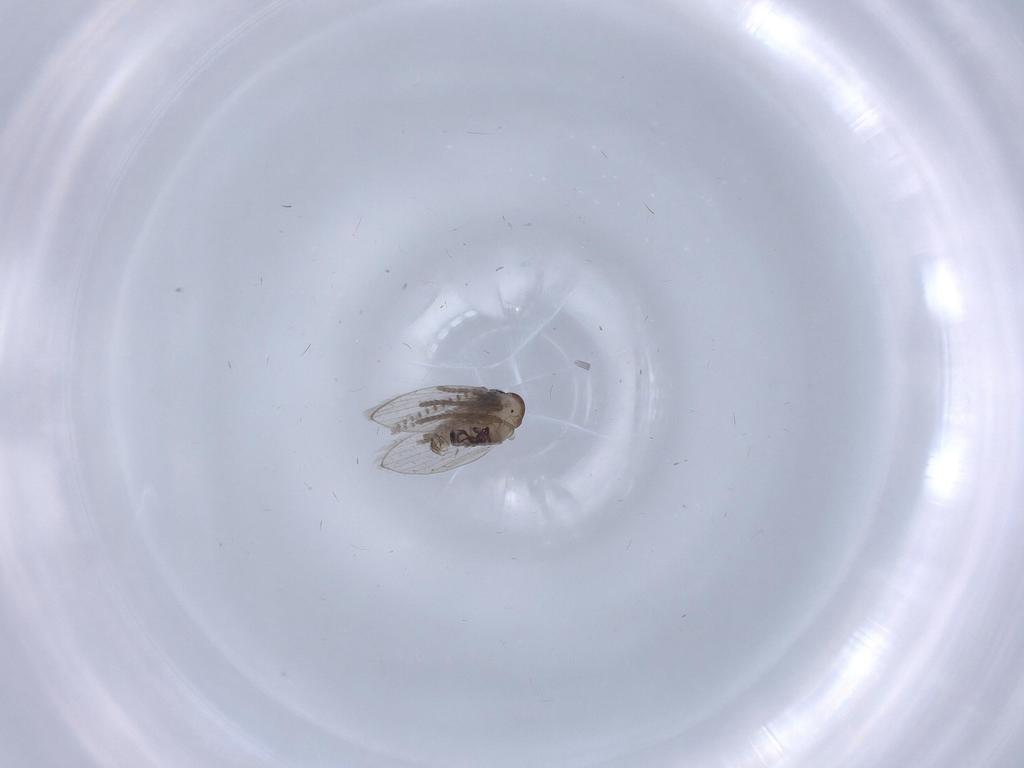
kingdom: Animalia
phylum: Arthropoda
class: Insecta
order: Diptera
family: Psychodidae
